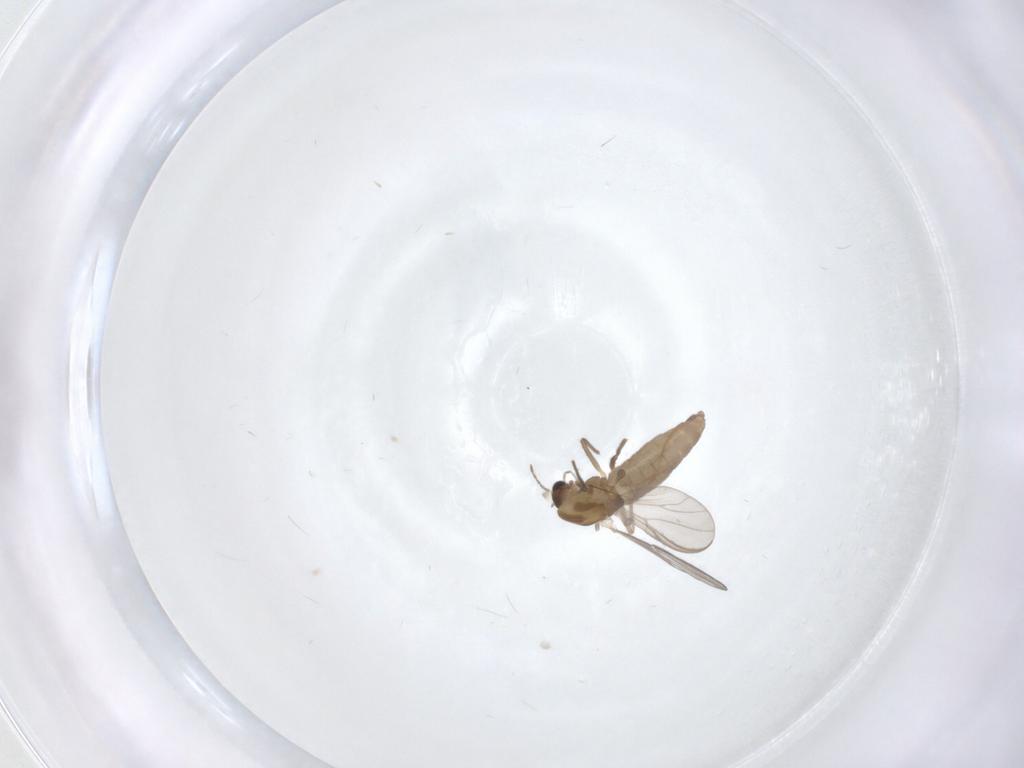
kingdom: Animalia
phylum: Arthropoda
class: Insecta
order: Diptera
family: Chironomidae
